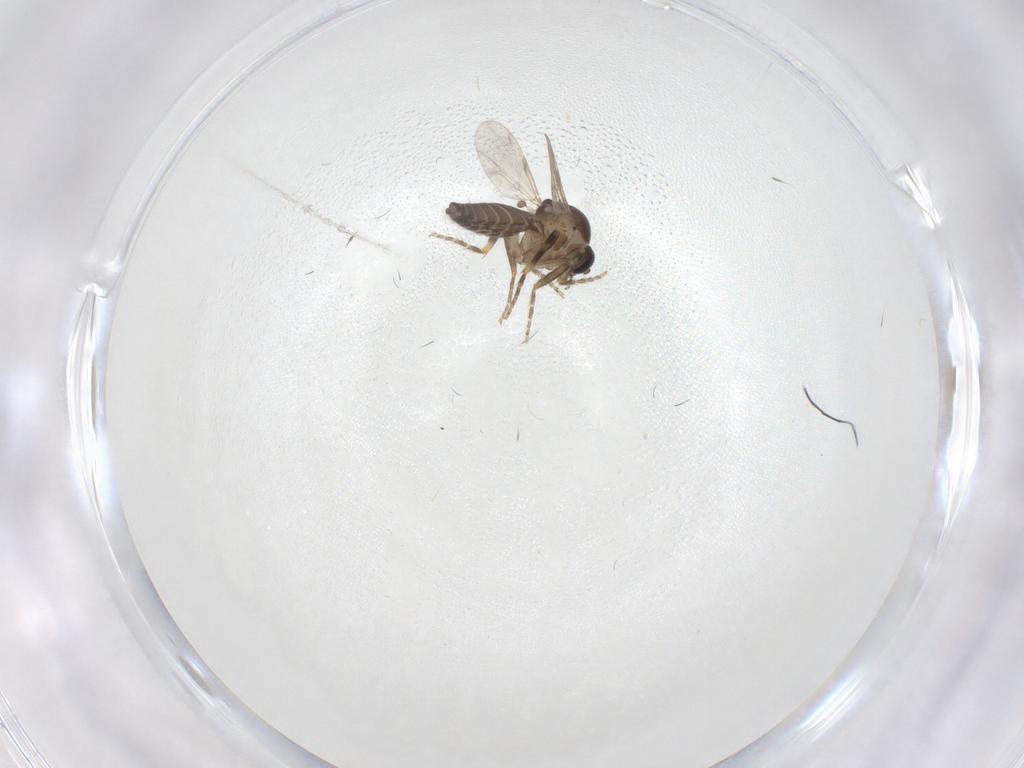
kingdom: Animalia
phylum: Arthropoda
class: Insecta
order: Diptera
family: Ceratopogonidae
